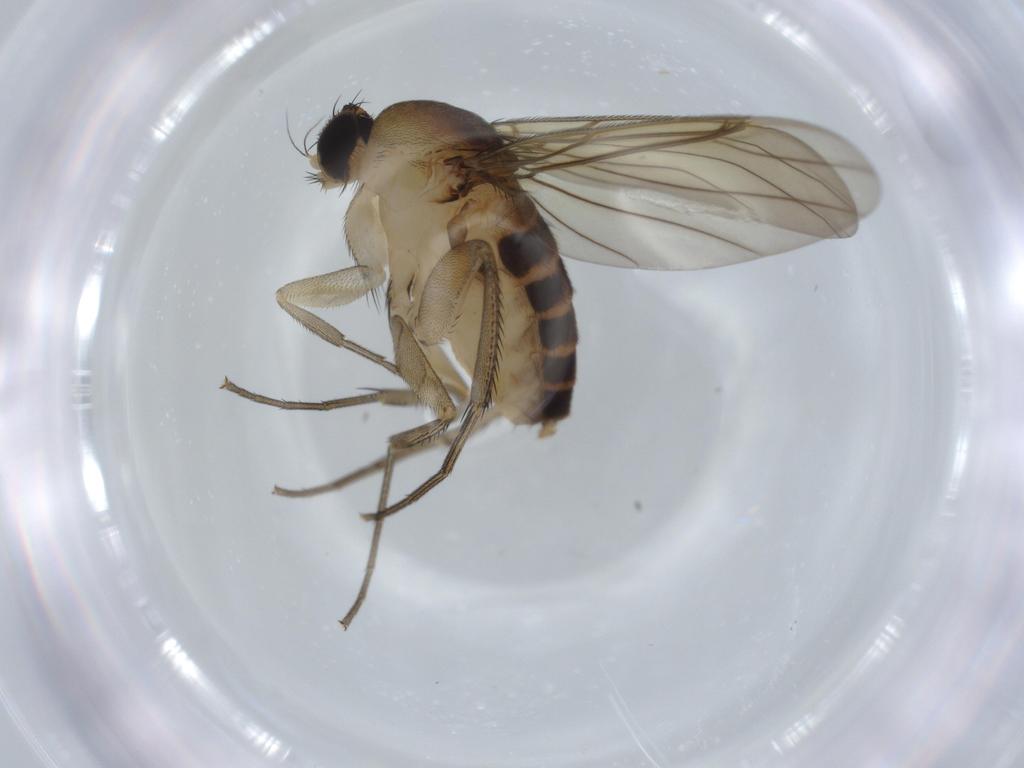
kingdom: Animalia
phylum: Arthropoda
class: Insecta
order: Diptera
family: Phoridae
